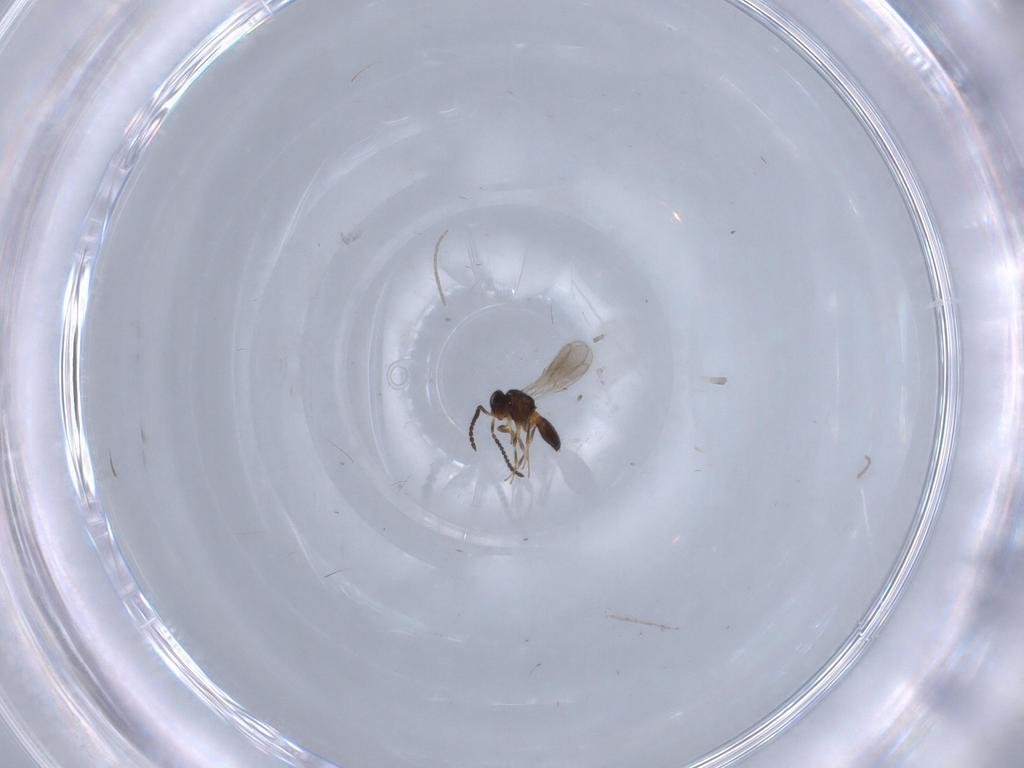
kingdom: Animalia
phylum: Arthropoda
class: Insecta
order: Hymenoptera
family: Scelionidae
